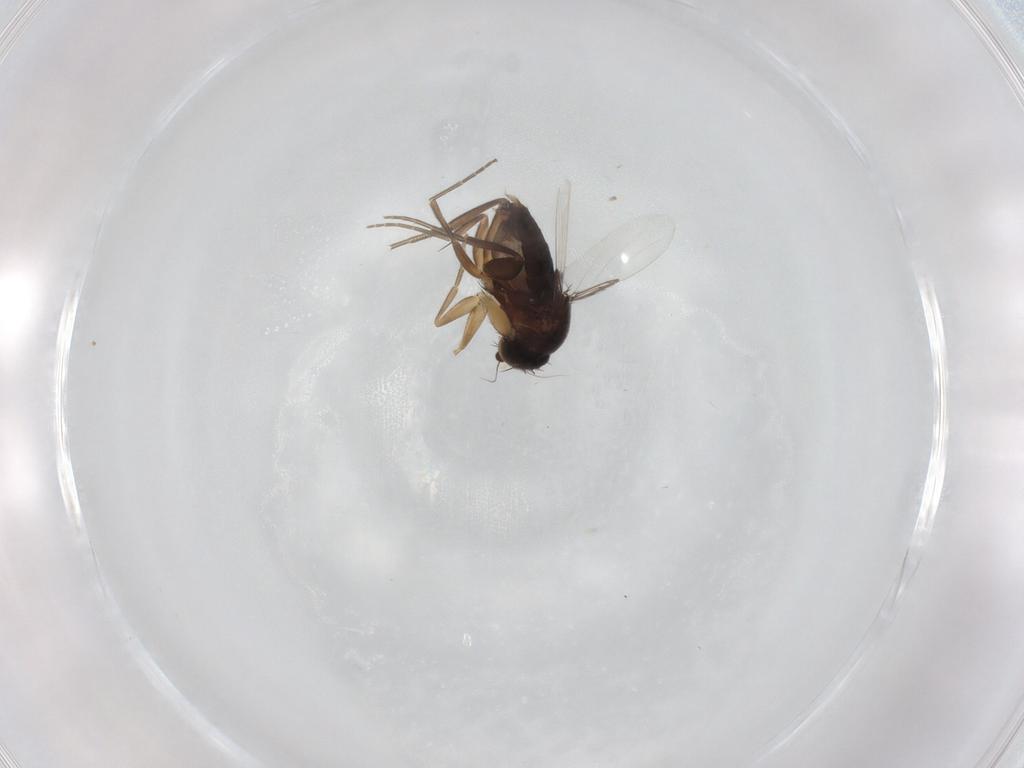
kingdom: Animalia
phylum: Arthropoda
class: Insecta
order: Diptera
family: Phoridae
